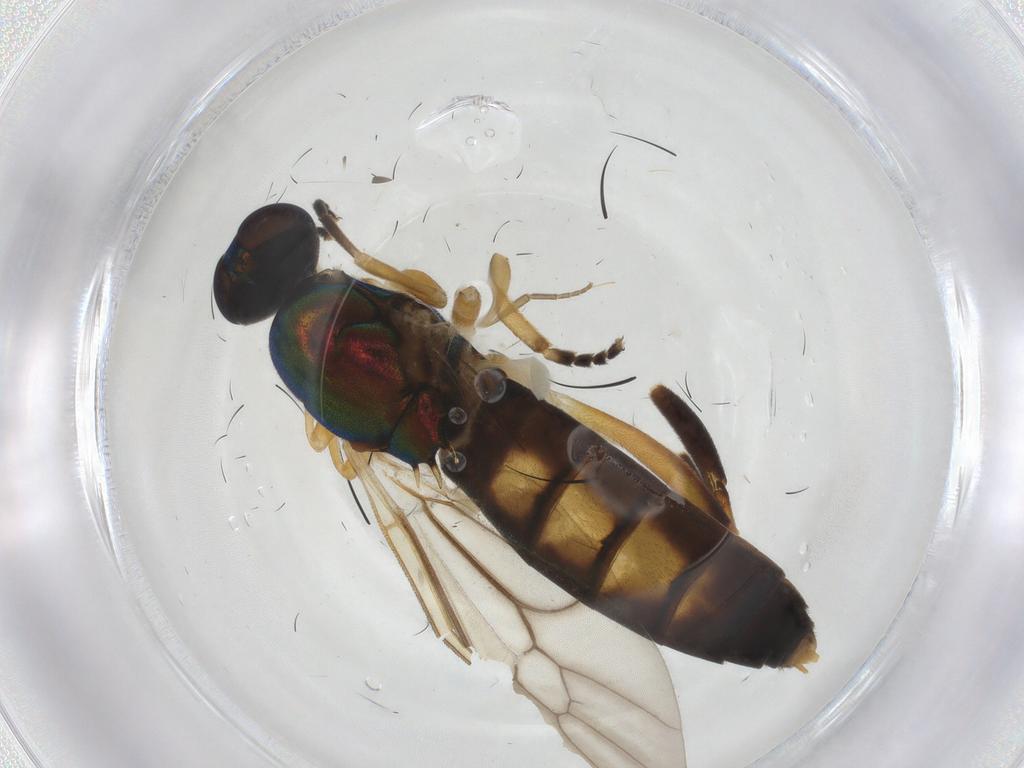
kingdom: Animalia
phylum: Arthropoda
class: Insecta
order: Diptera
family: Stratiomyidae
